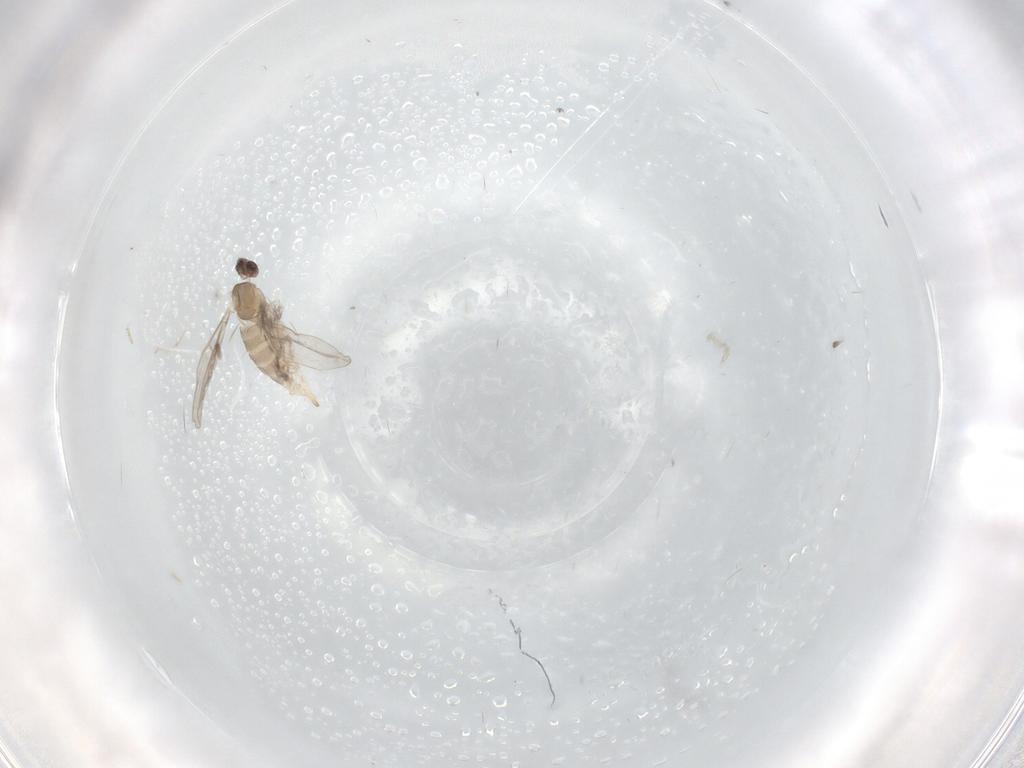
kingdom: Animalia
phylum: Arthropoda
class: Insecta
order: Diptera
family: Cecidomyiidae
